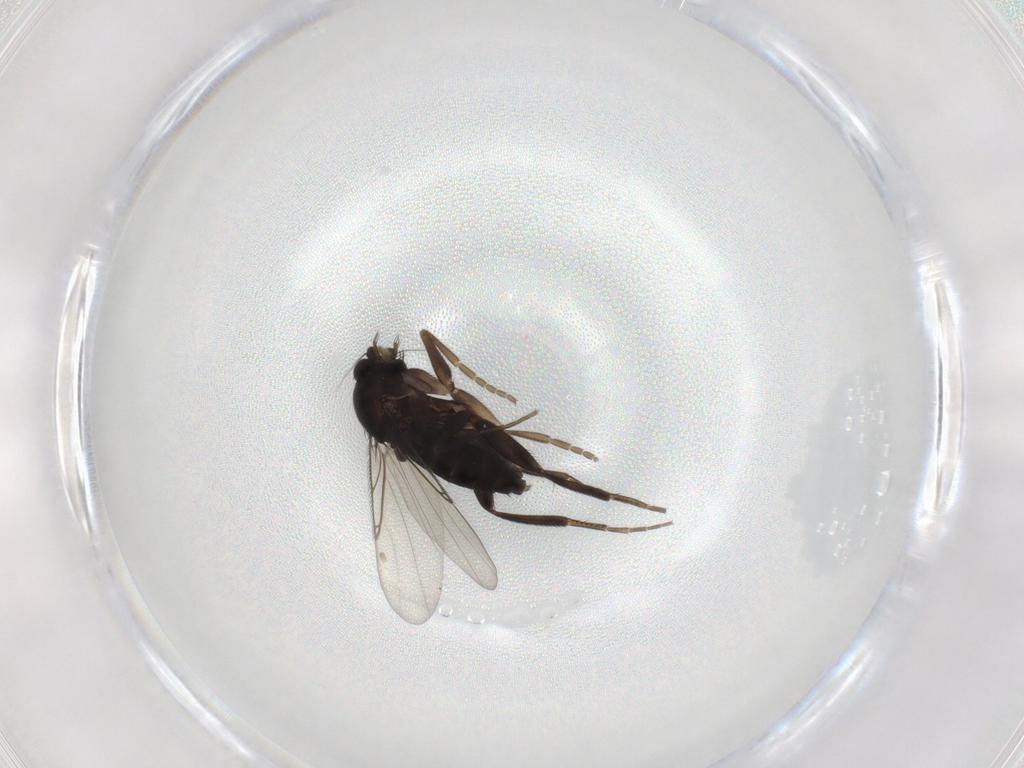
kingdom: Animalia
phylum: Arthropoda
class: Insecta
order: Diptera
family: Phoridae
